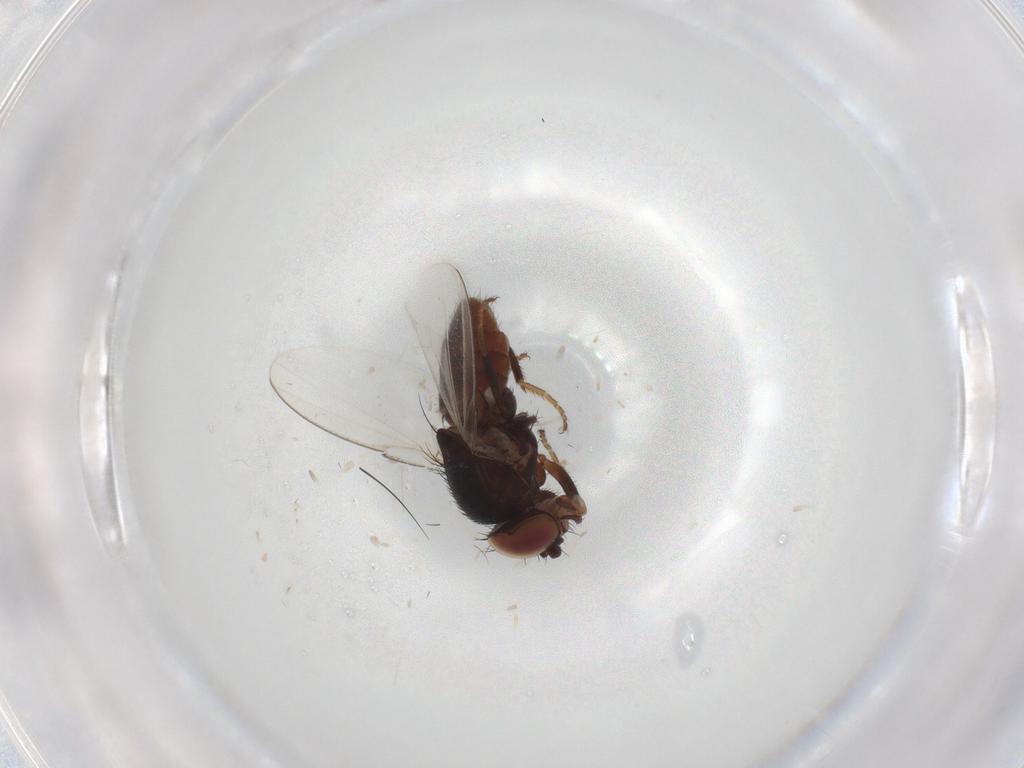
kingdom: Animalia
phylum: Arthropoda
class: Insecta
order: Diptera
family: Milichiidae
